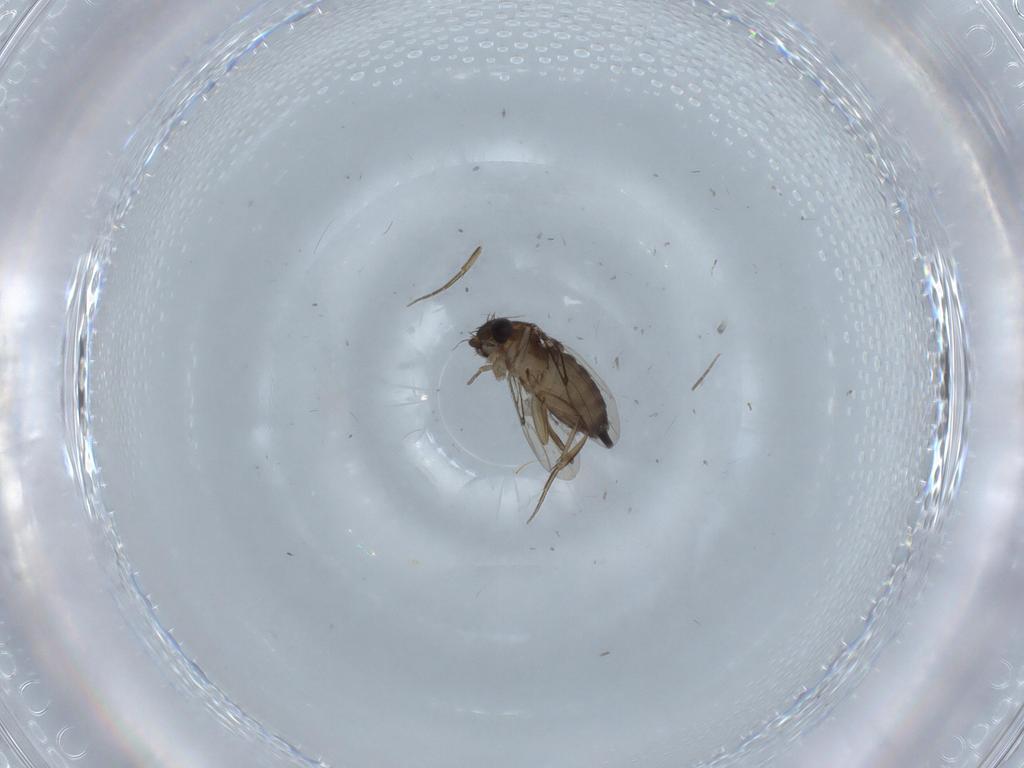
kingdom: Animalia
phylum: Arthropoda
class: Insecta
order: Diptera
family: Phoridae
